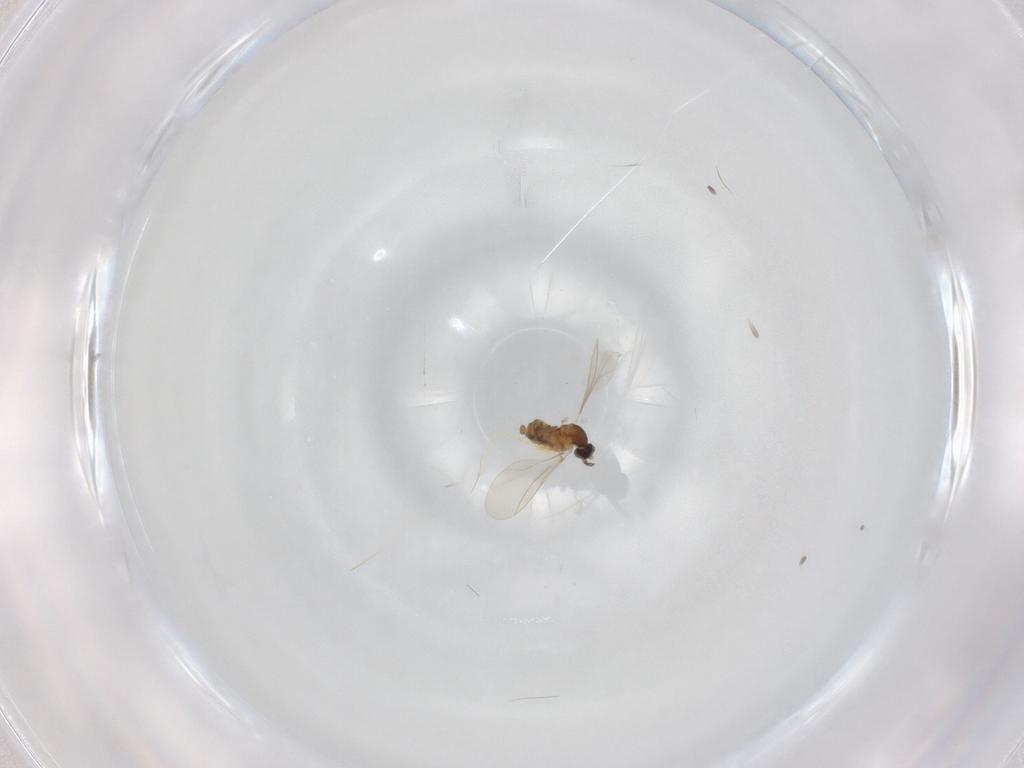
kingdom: Animalia
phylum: Arthropoda
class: Insecta
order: Diptera
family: Cecidomyiidae
